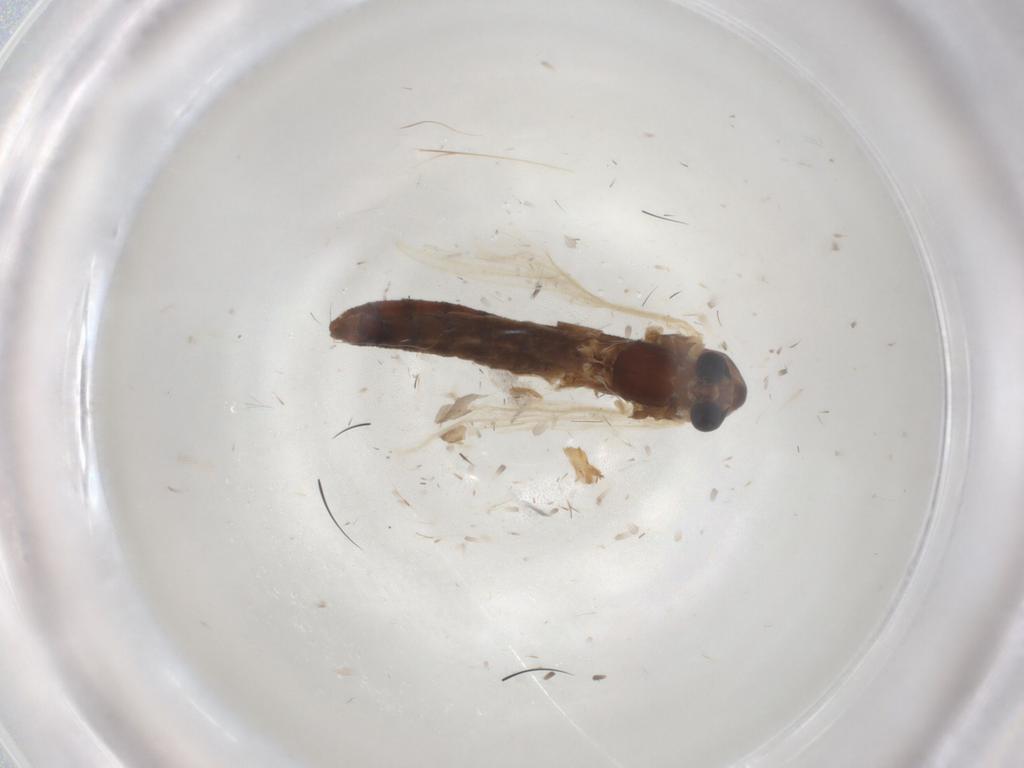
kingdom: Animalia
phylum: Arthropoda
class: Insecta
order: Diptera
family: Chironomidae
